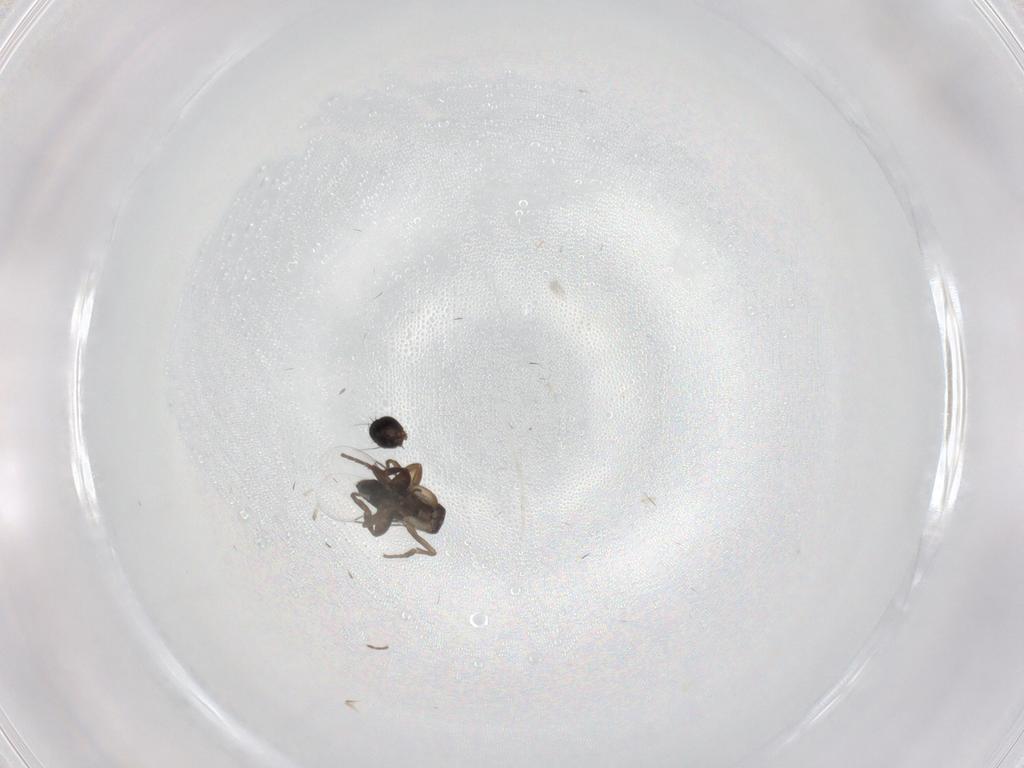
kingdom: Animalia
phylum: Arthropoda
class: Insecta
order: Diptera
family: Phoridae
